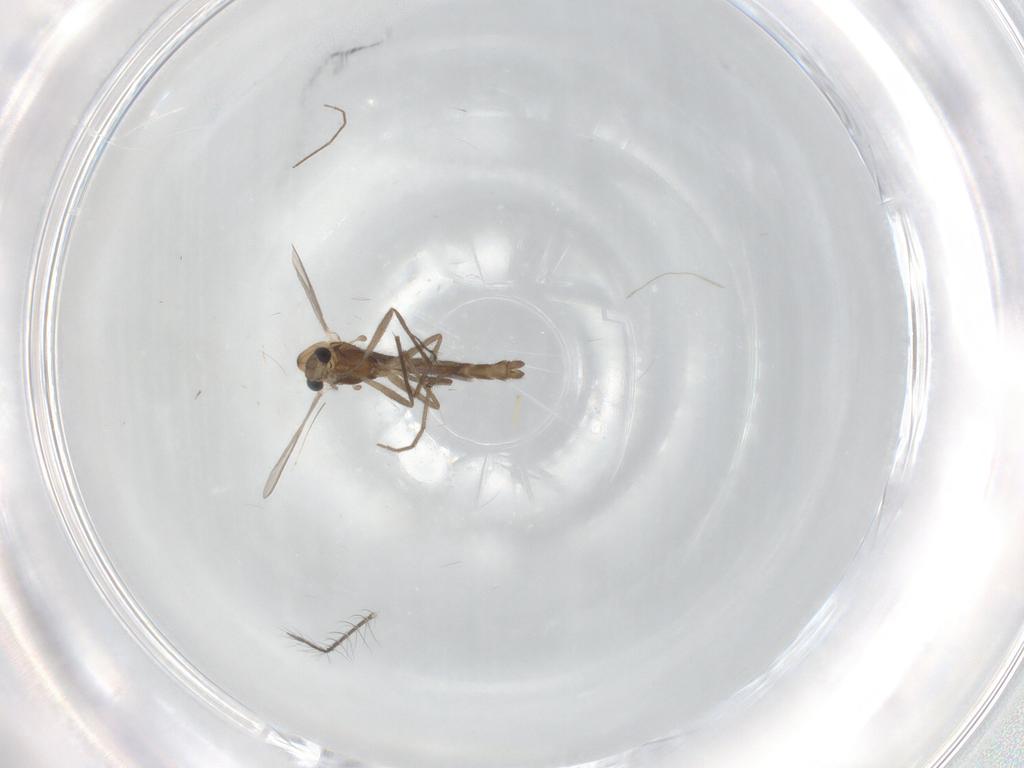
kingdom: Animalia
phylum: Arthropoda
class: Insecta
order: Diptera
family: Chironomidae
